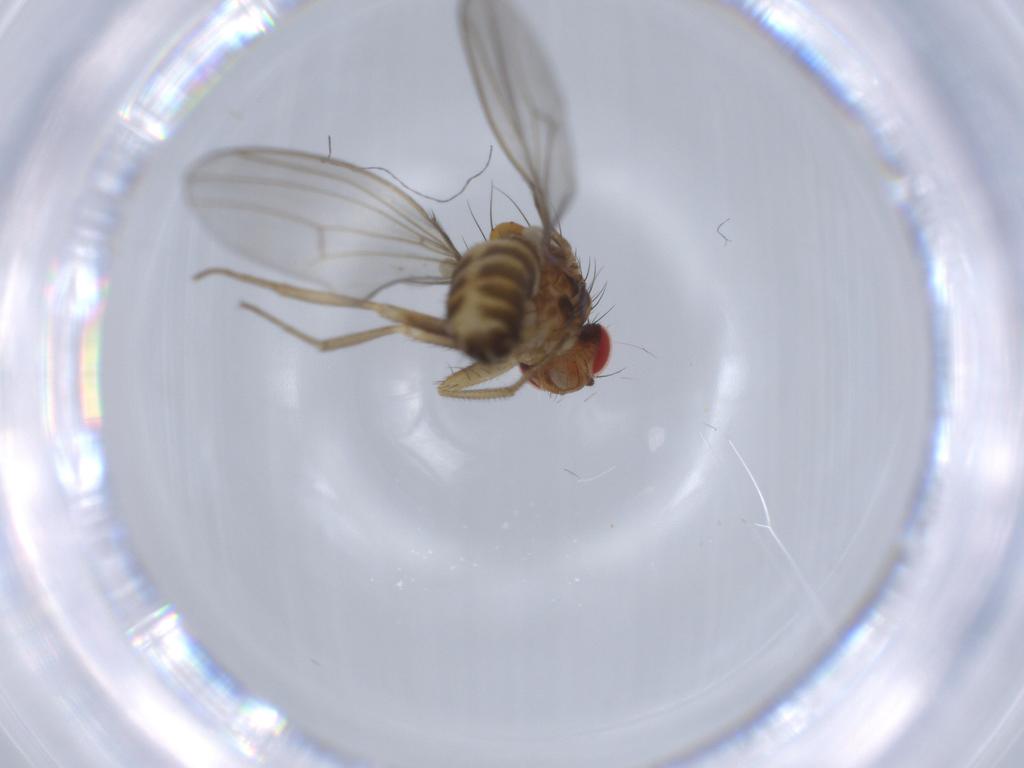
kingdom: Animalia
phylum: Arthropoda
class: Insecta
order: Diptera
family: Drosophilidae
